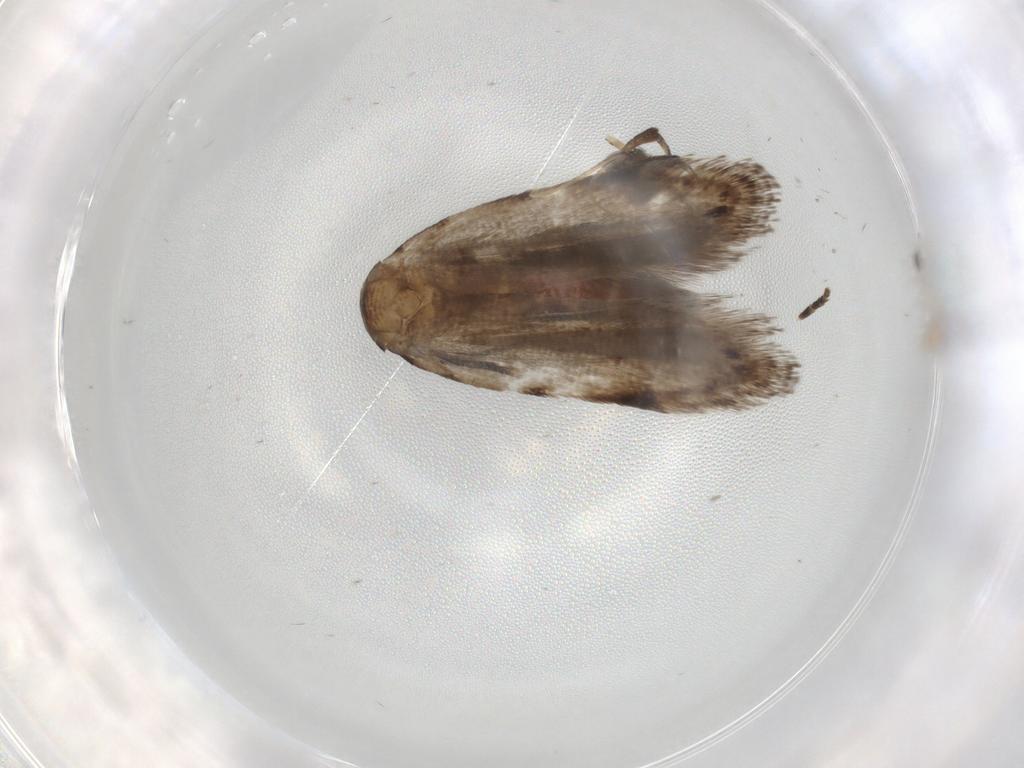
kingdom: Animalia
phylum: Arthropoda
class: Insecta
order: Lepidoptera
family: Gelechiidae
